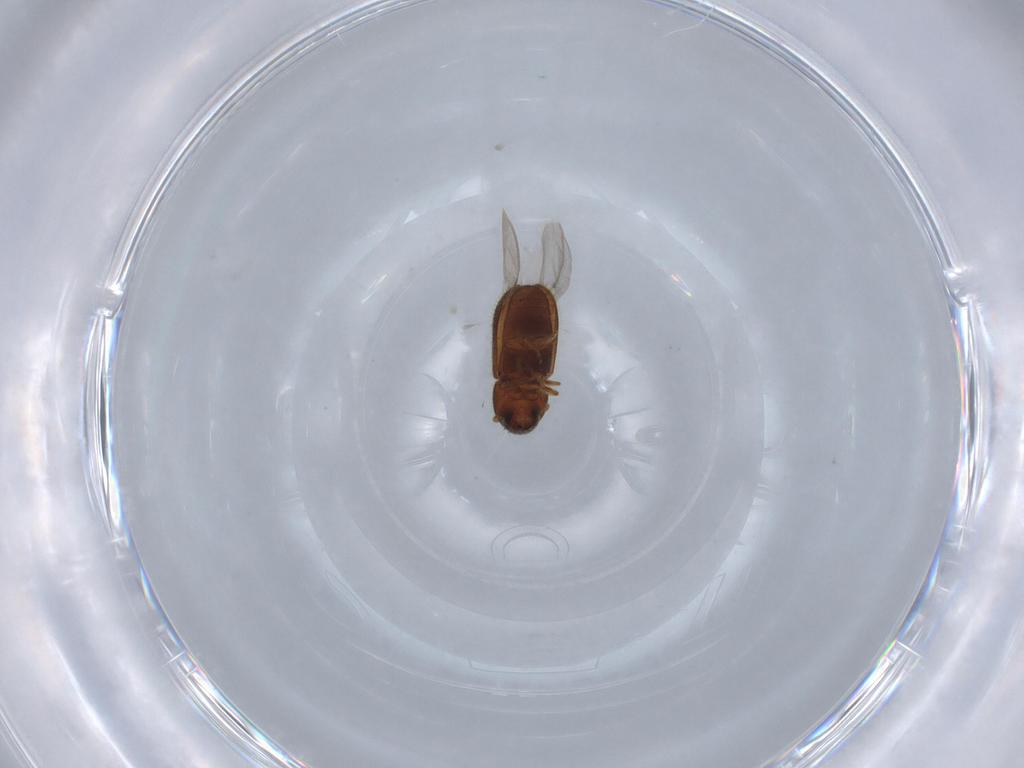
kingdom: Animalia
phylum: Arthropoda
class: Insecta
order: Coleoptera
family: Curculionidae
